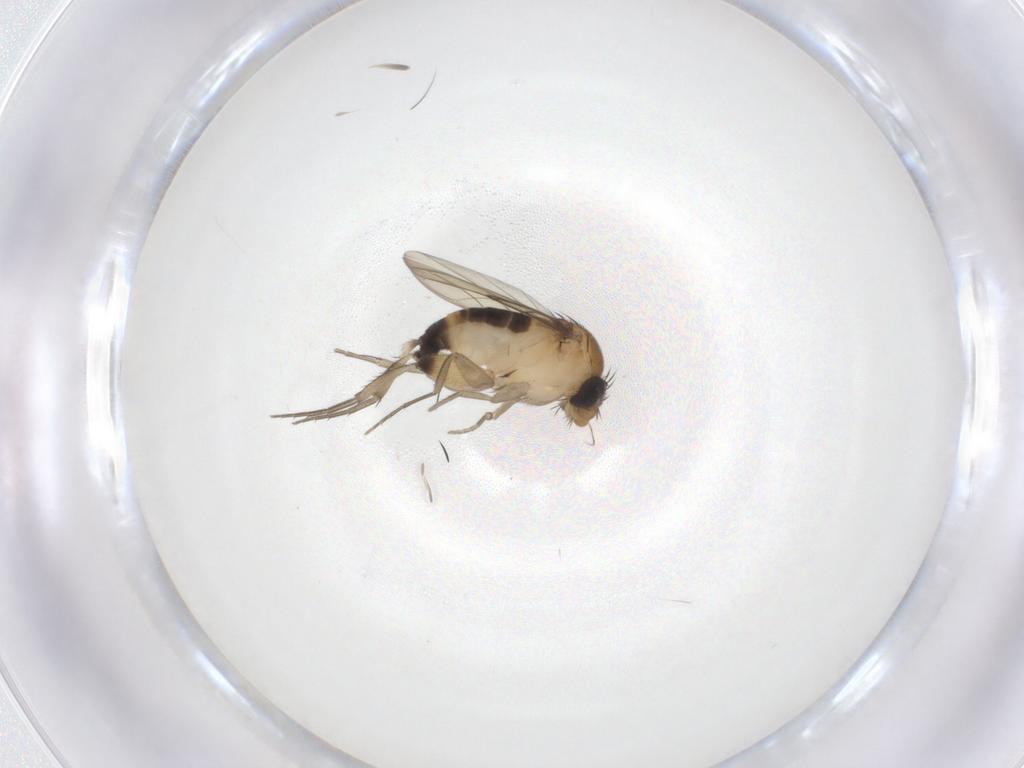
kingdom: Animalia
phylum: Arthropoda
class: Insecta
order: Diptera
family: Phoridae
